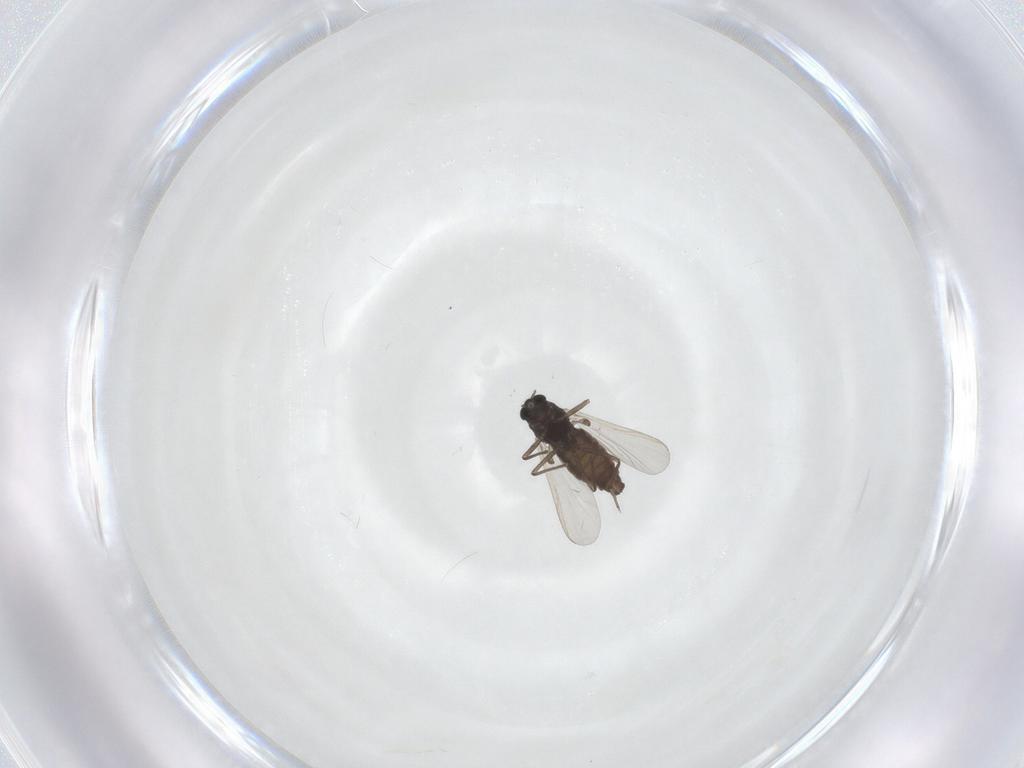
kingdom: Animalia
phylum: Arthropoda
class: Insecta
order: Diptera
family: Chironomidae
